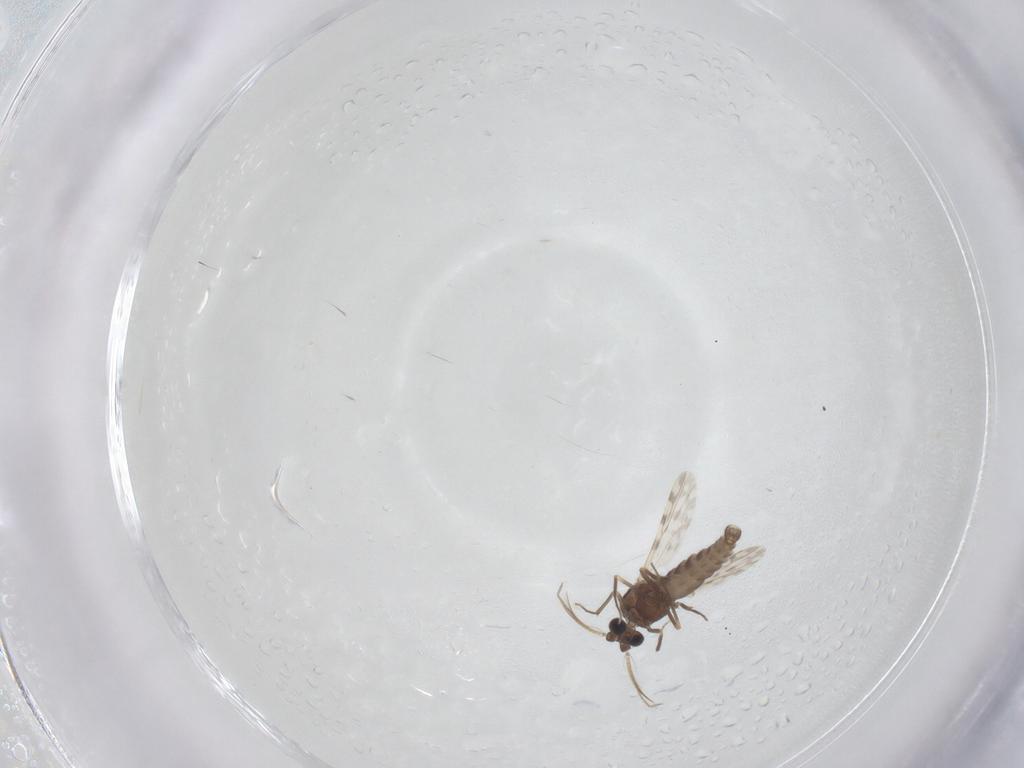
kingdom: Animalia
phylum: Arthropoda
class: Insecta
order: Diptera
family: Ceratopogonidae
